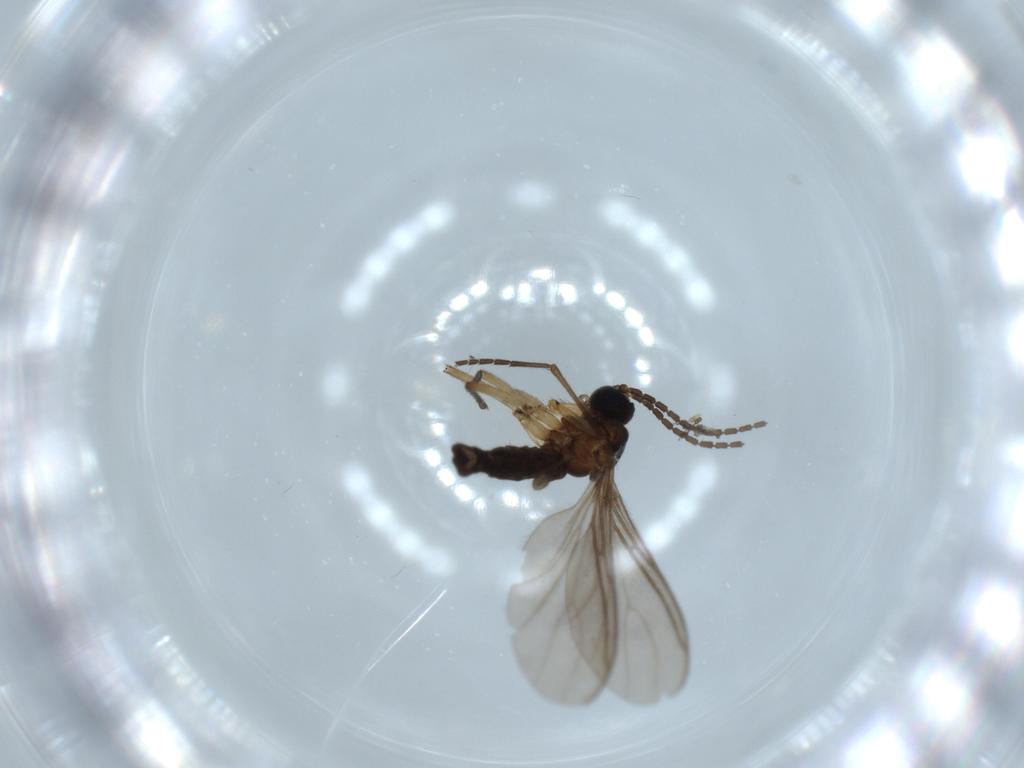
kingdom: Animalia
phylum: Arthropoda
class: Insecta
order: Diptera
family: Sciaridae
